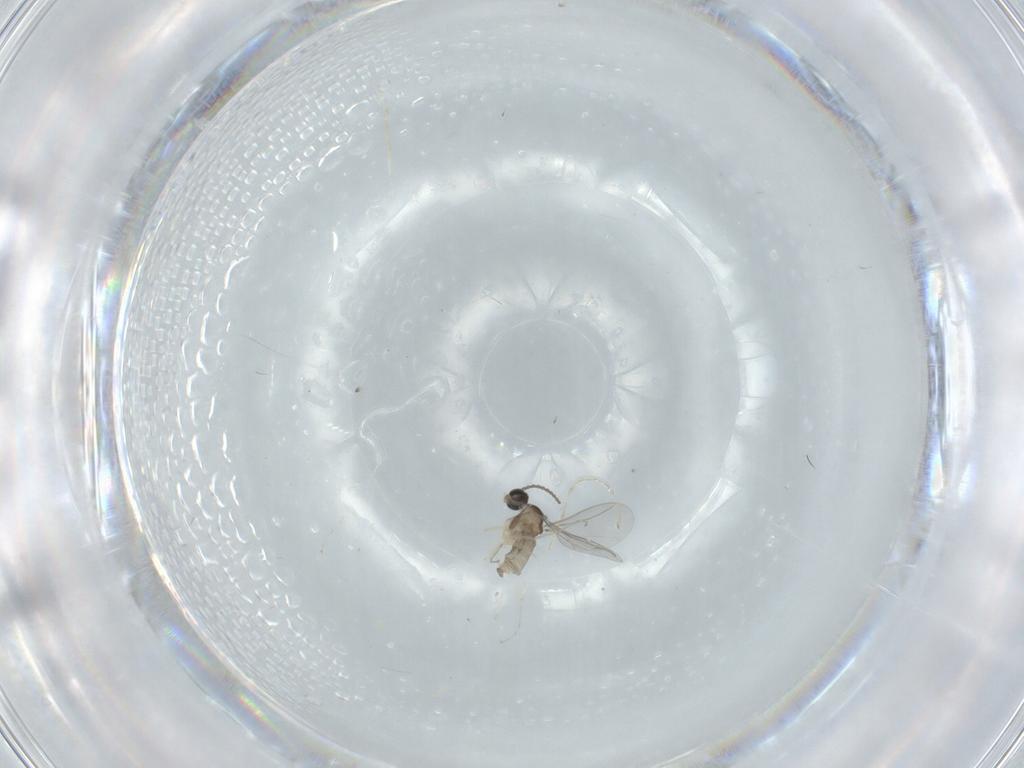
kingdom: Animalia
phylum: Arthropoda
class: Insecta
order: Diptera
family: Cecidomyiidae
